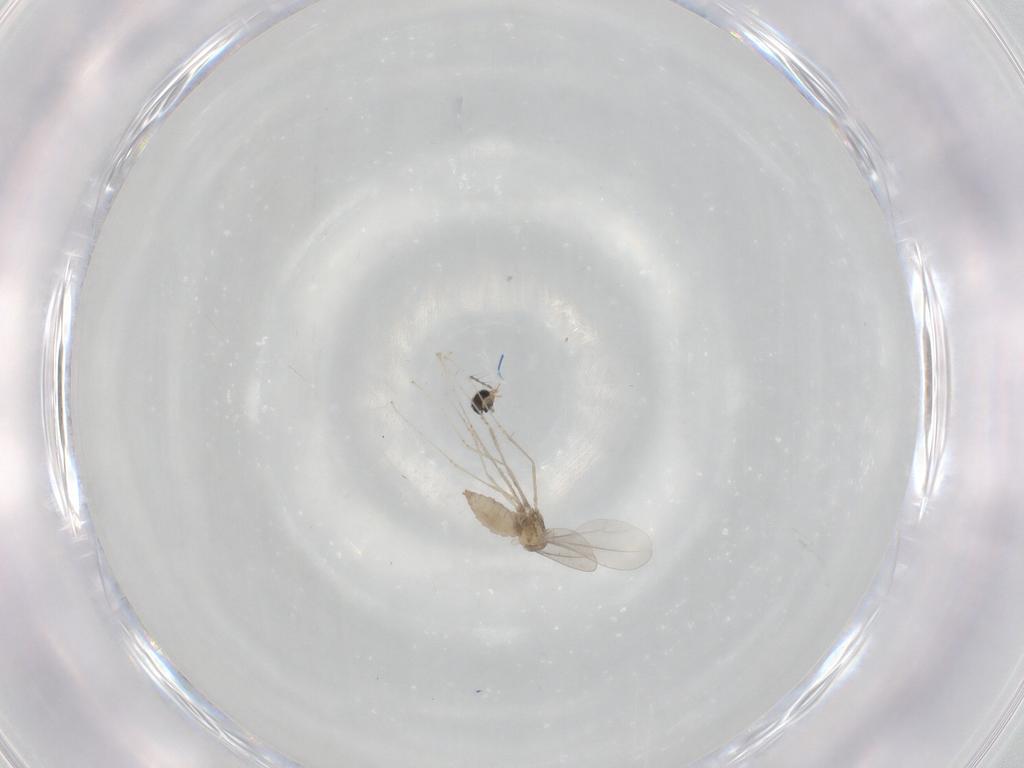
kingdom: Animalia
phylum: Arthropoda
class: Insecta
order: Diptera
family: Cecidomyiidae
